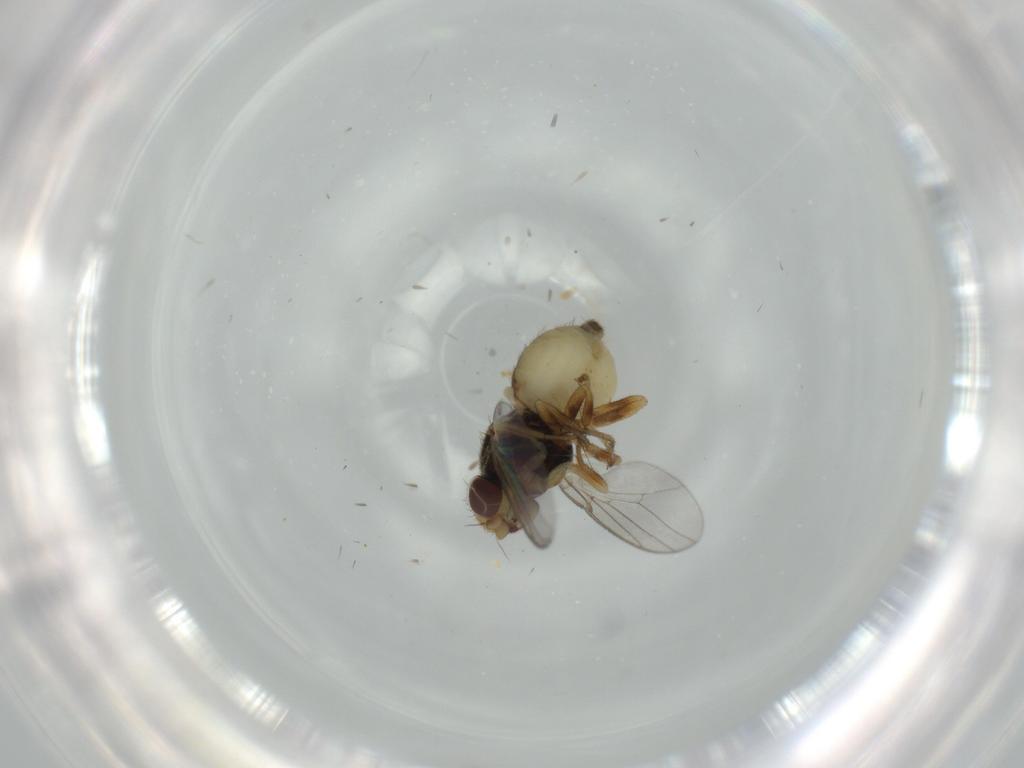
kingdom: Animalia
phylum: Arthropoda
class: Insecta
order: Diptera
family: Chloropidae
